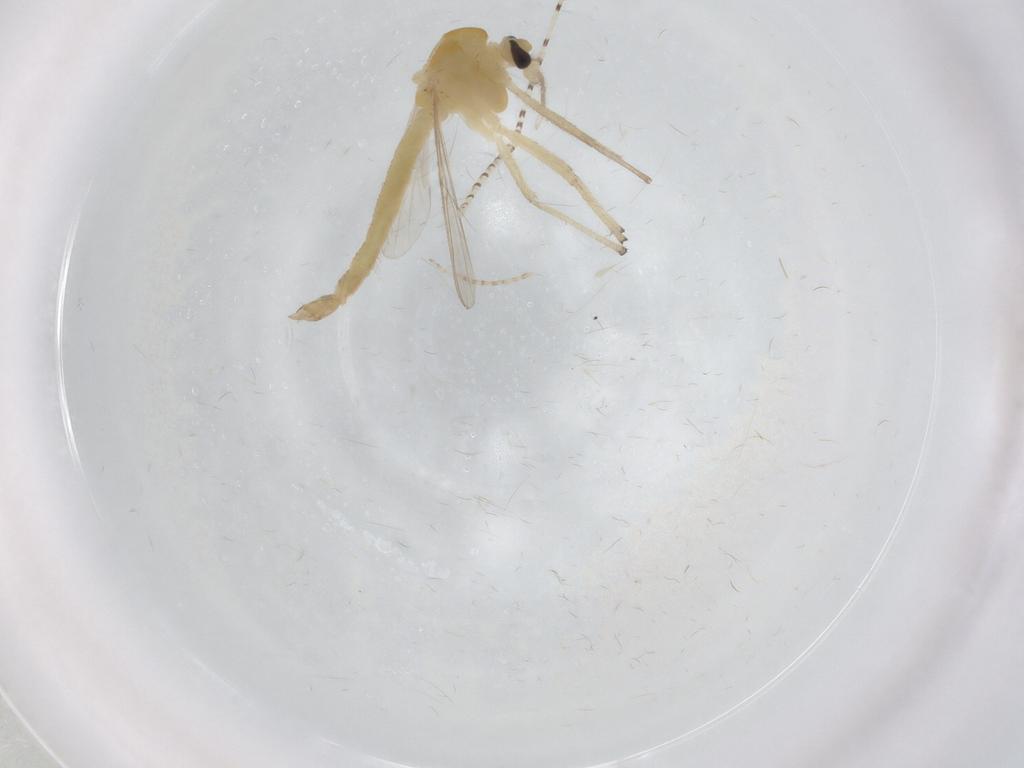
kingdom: Animalia
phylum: Arthropoda
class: Insecta
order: Diptera
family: Chironomidae
